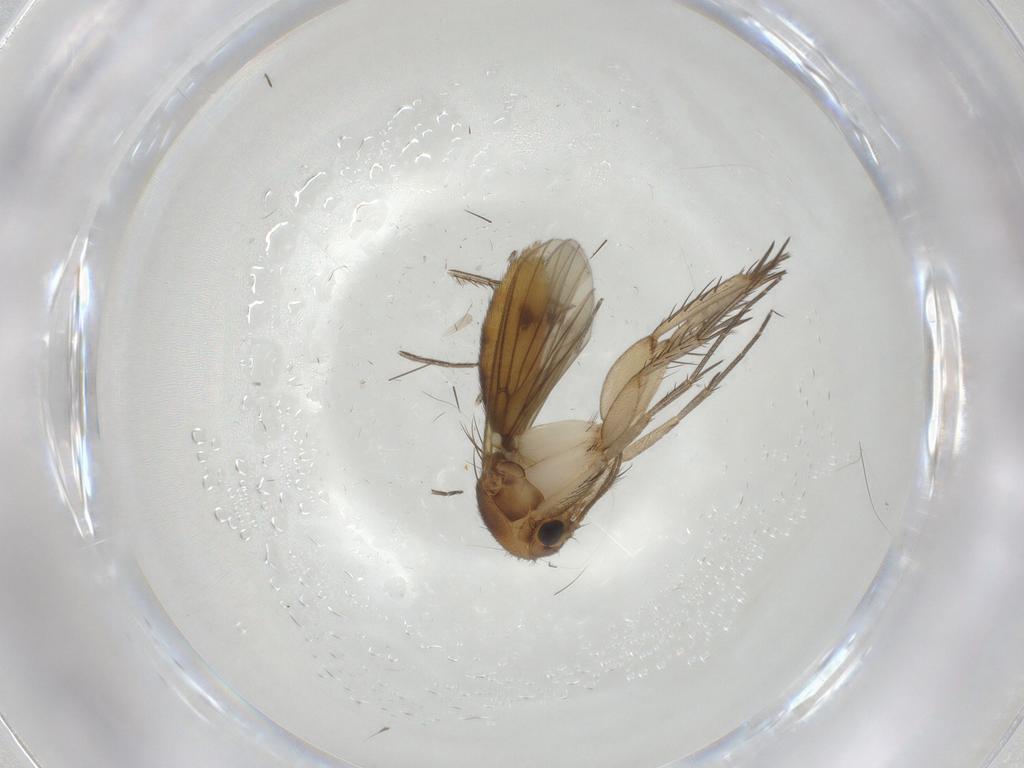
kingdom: Animalia
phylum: Arthropoda
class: Insecta
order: Diptera
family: Mycetophilidae
